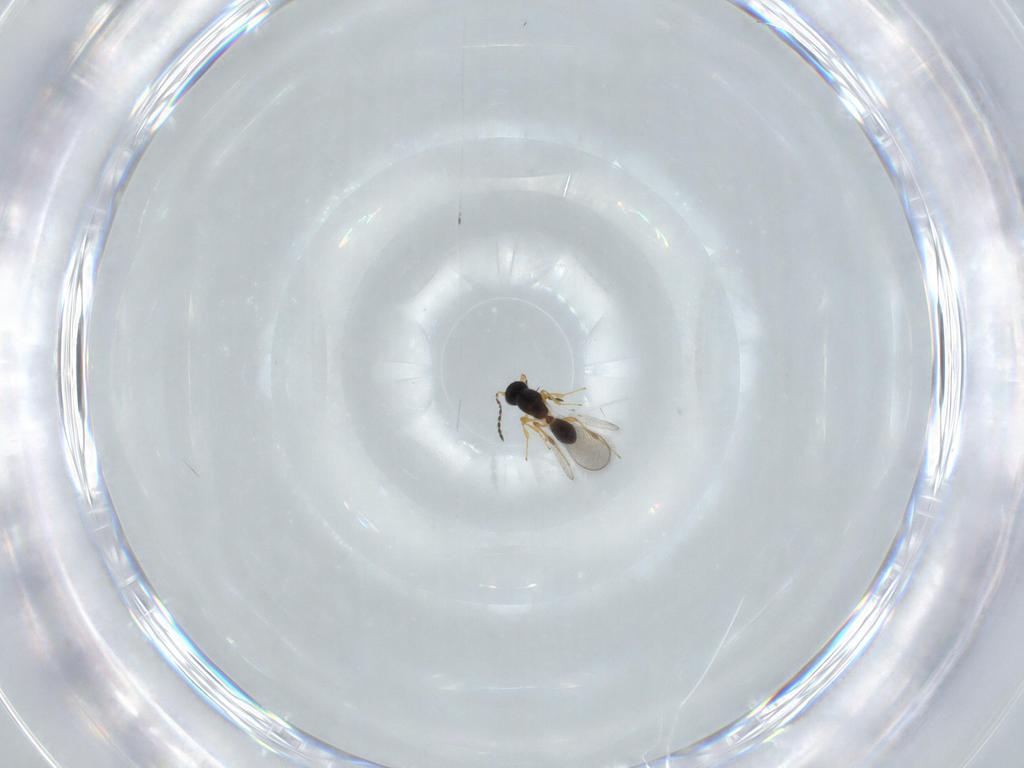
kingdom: Animalia
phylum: Arthropoda
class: Insecta
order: Hymenoptera
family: Platygastridae
